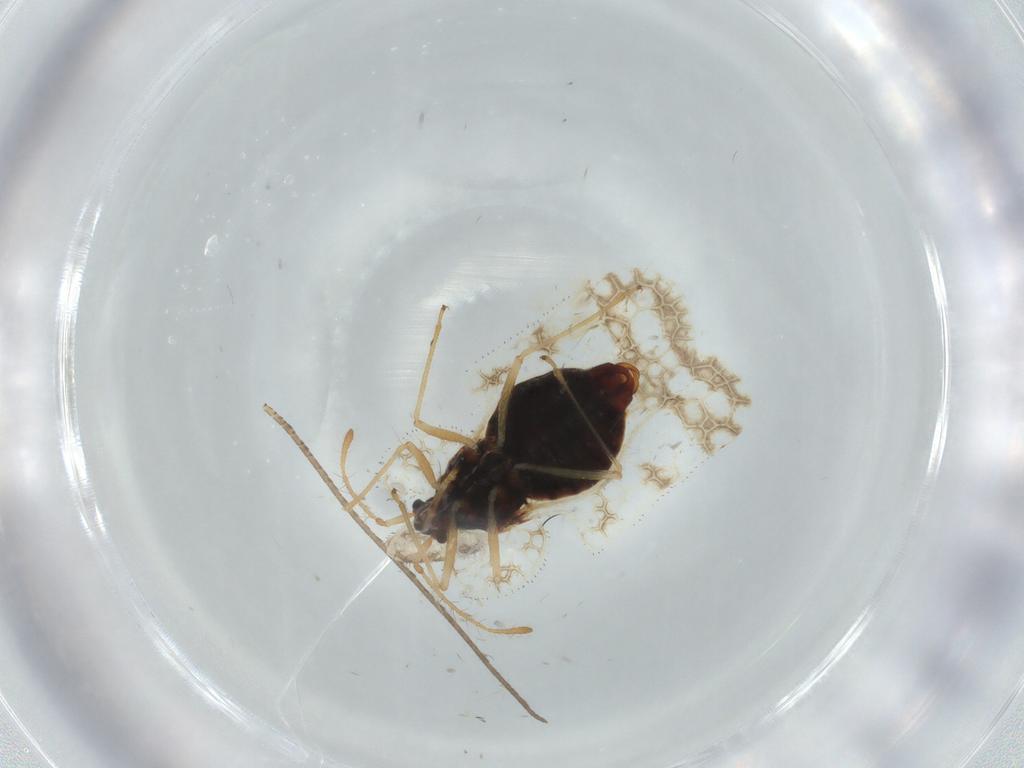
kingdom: Animalia
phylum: Arthropoda
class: Insecta
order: Hemiptera
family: Tingidae
